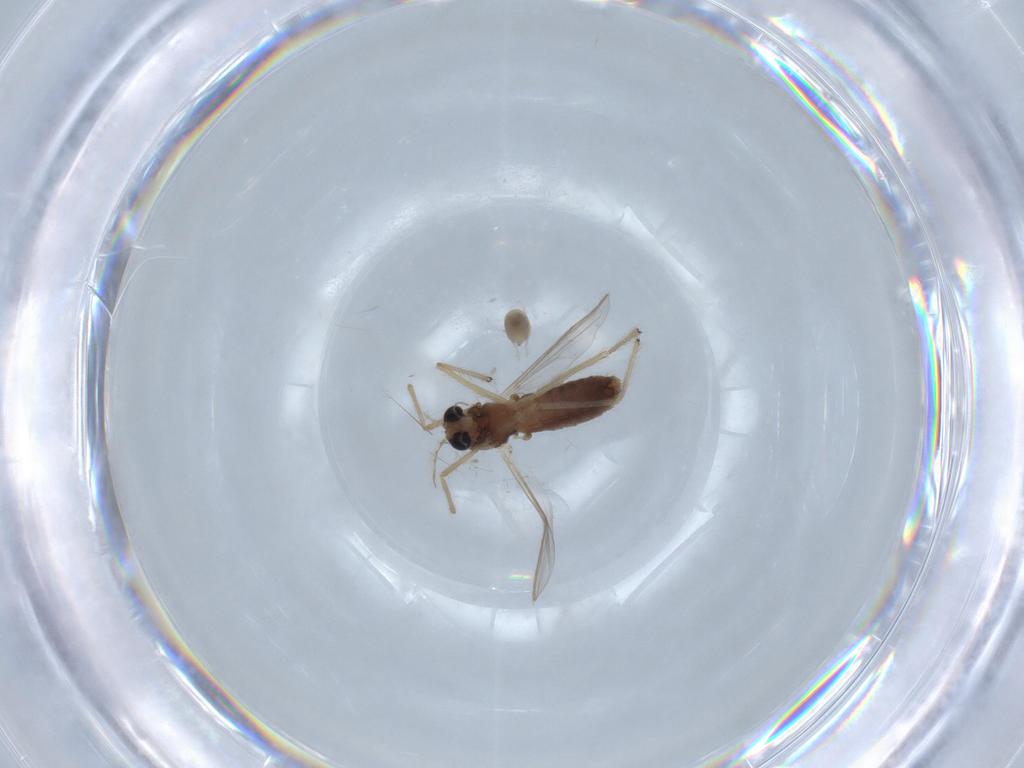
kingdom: Animalia
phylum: Arthropoda
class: Insecta
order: Diptera
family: Chironomidae
